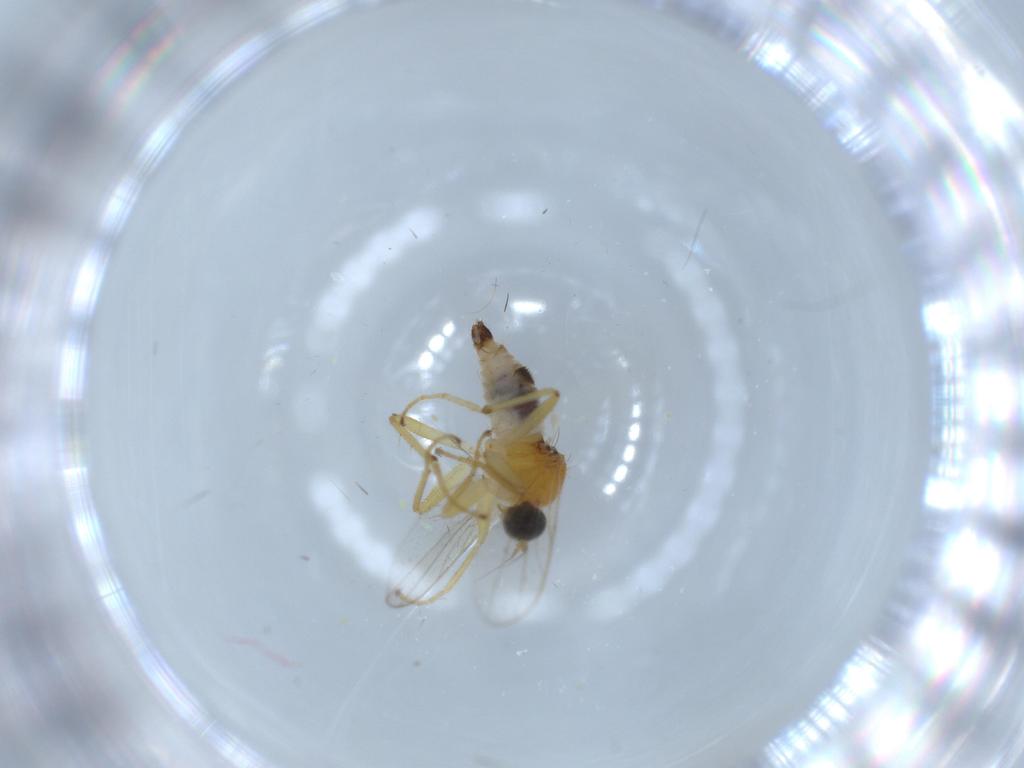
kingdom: Animalia
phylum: Arthropoda
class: Insecta
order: Diptera
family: Hybotidae
